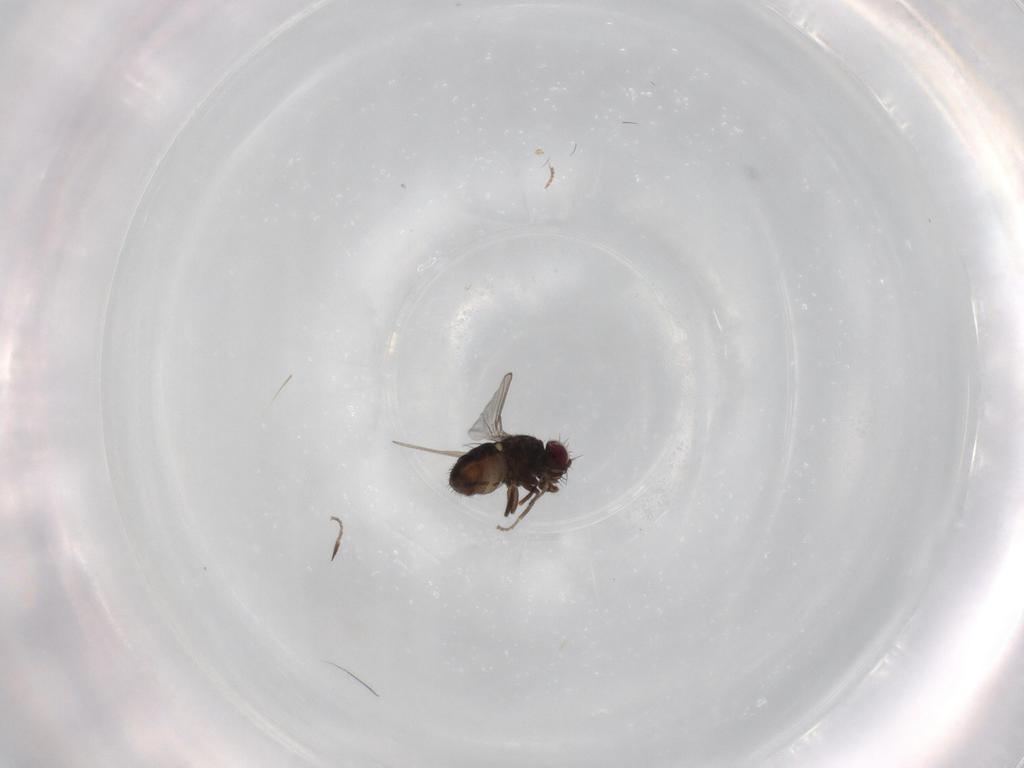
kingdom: Animalia
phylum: Arthropoda
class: Insecta
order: Diptera
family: Carnidae
